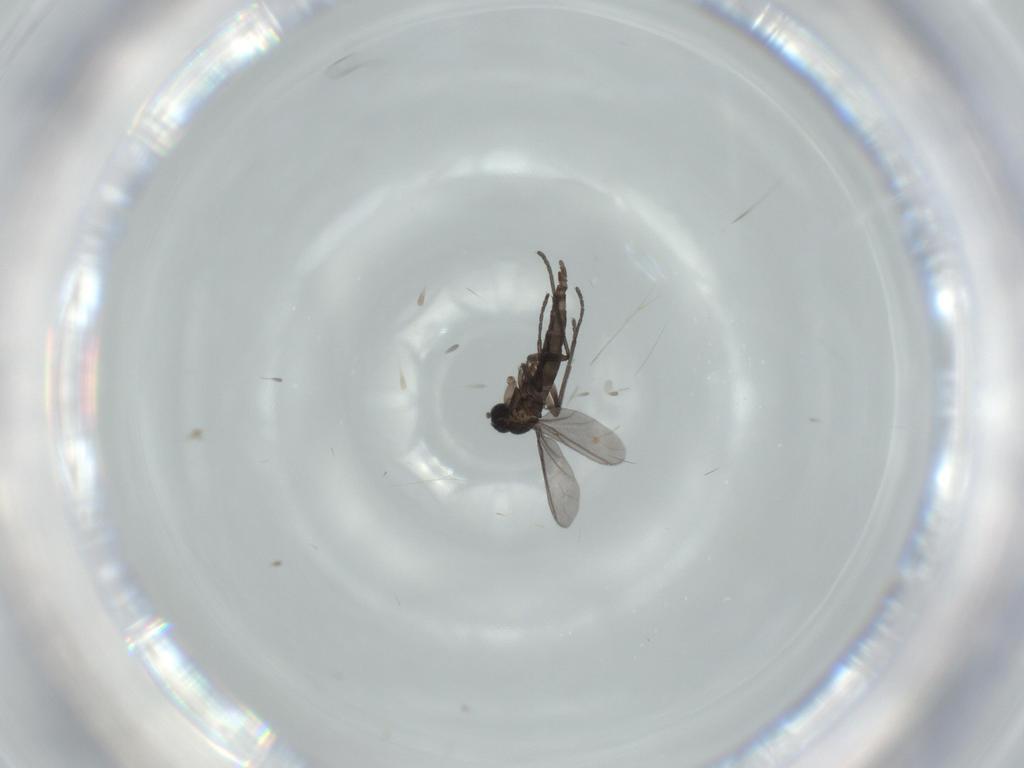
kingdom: Animalia
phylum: Arthropoda
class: Insecta
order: Diptera
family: Sciaridae
